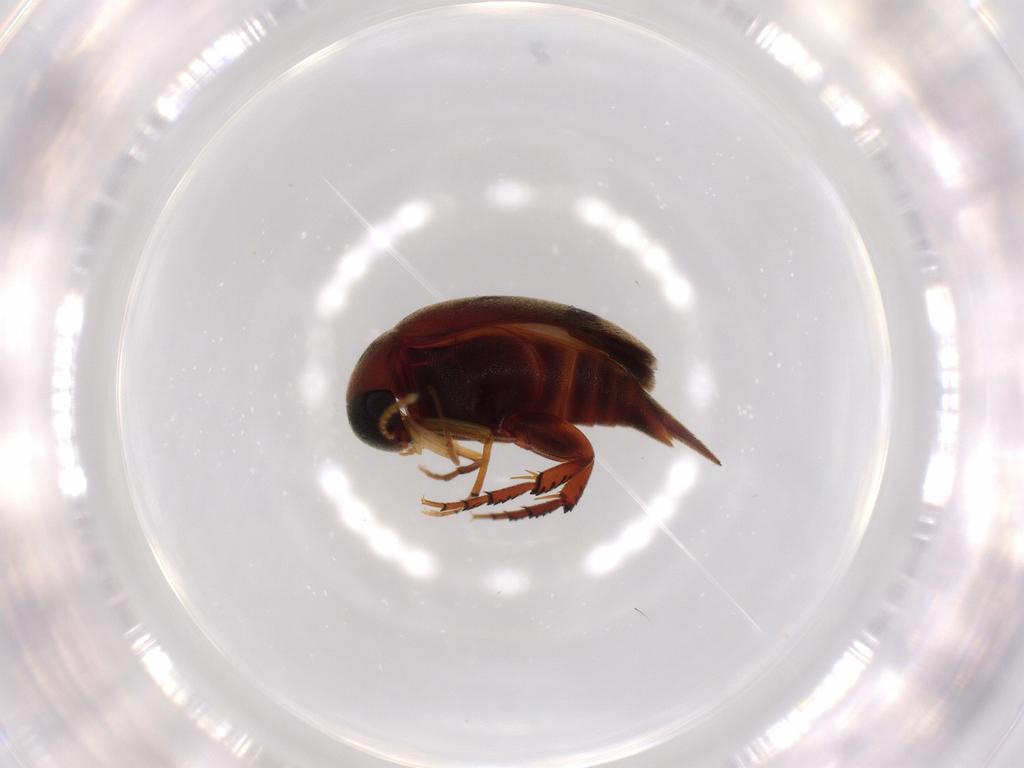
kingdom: Animalia
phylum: Arthropoda
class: Insecta
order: Coleoptera
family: Mordellidae
